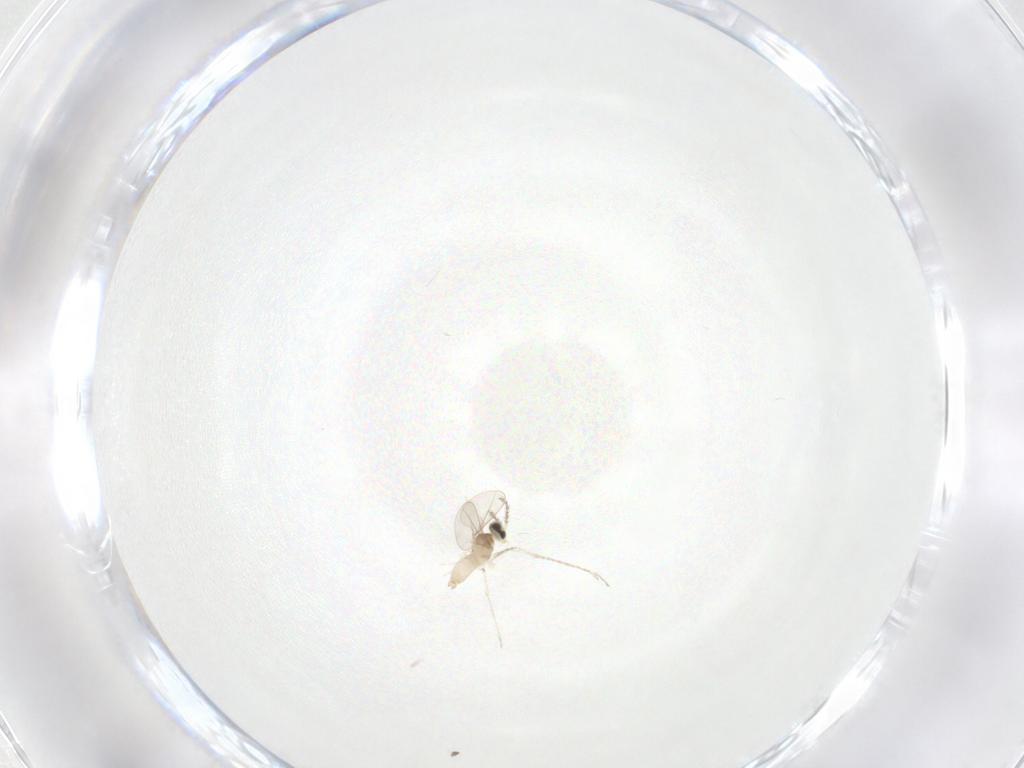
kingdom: Animalia
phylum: Arthropoda
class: Insecta
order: Diptera
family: Cecidomyiidae
